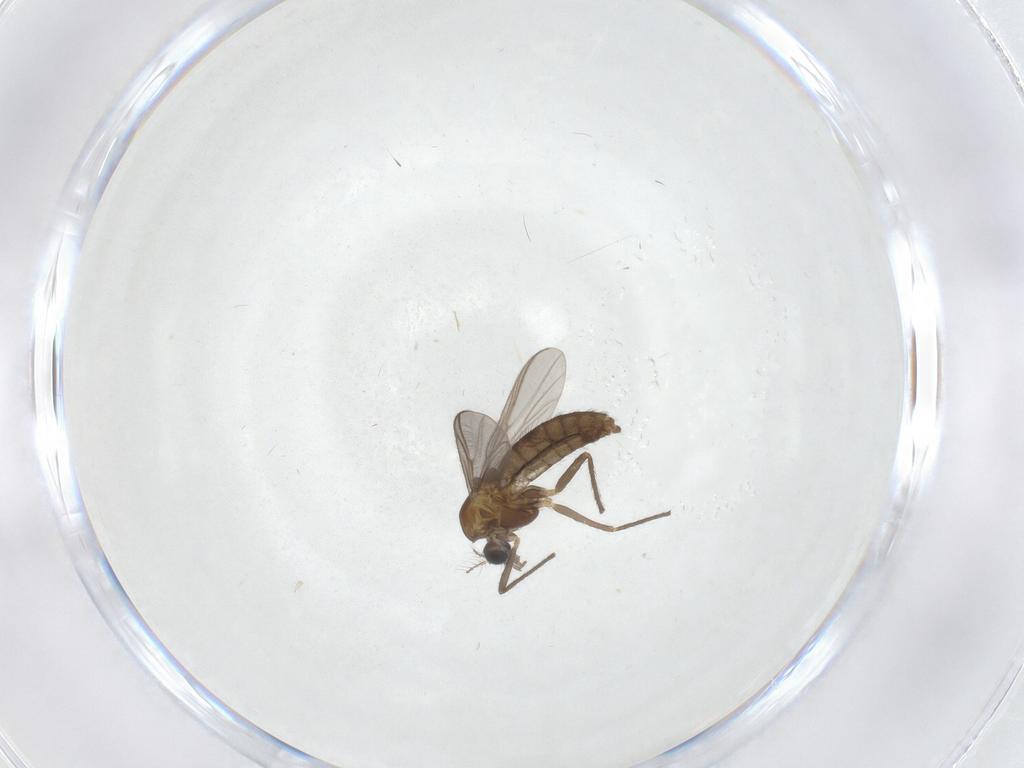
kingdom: Animalia
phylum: Arthropoda
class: Insecta
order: Diptera
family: Chironomidae
